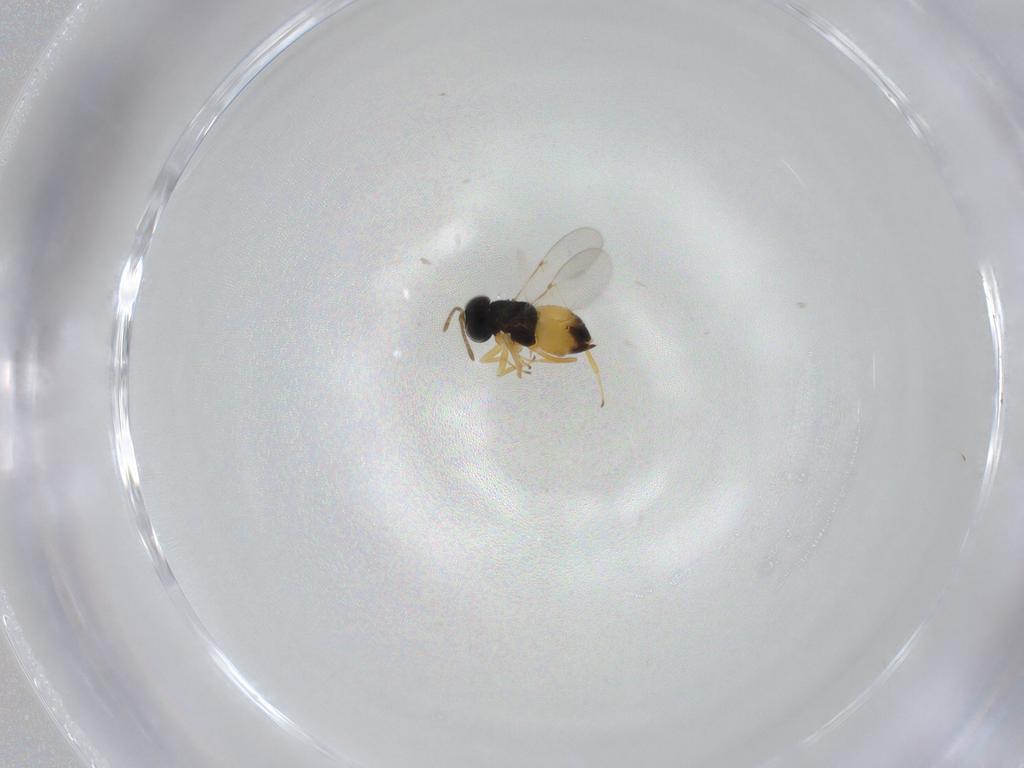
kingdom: Animalia
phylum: Arthropoda
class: Insecta
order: Hymenoptera
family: Encyrtidae
